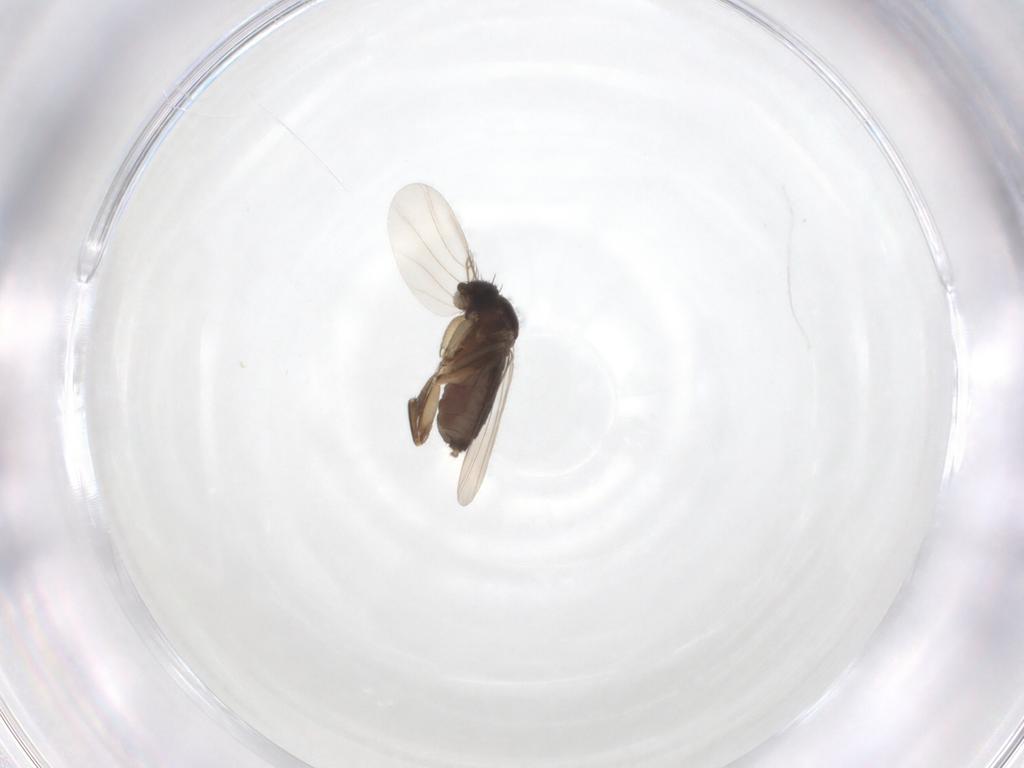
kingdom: Animalia
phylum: Arthropoda
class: Insecta
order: Diptera
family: Phoridae
